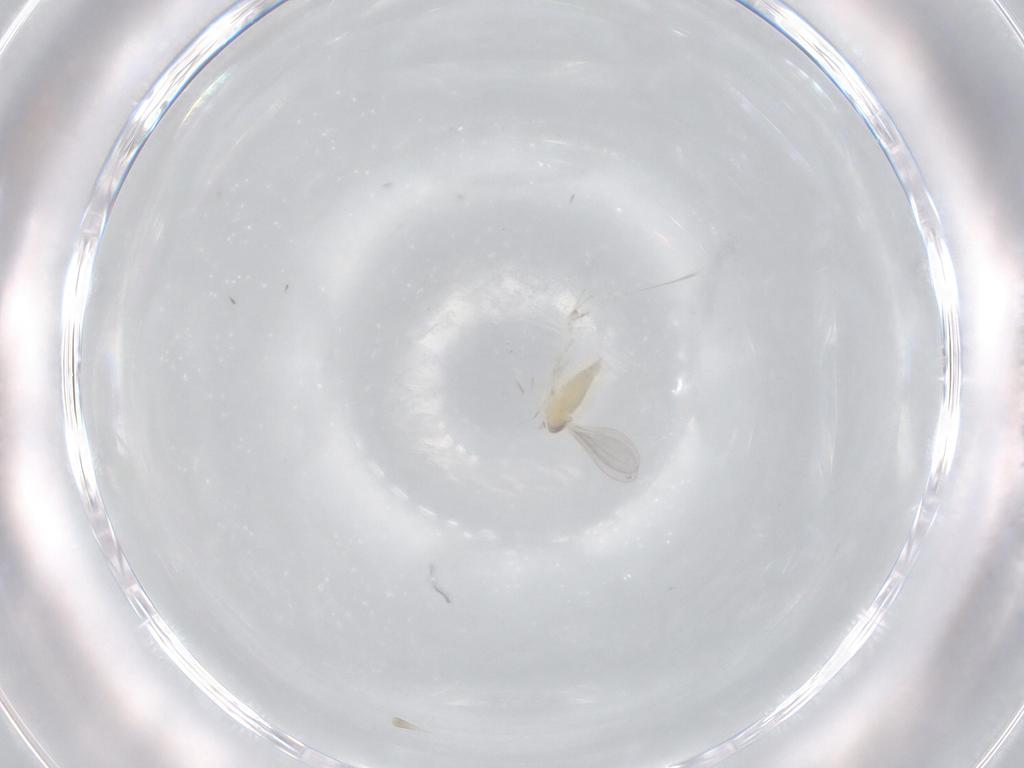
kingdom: Animalia
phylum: Arthropoda
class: Insecta
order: Diptera
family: Cecidomyiidae
